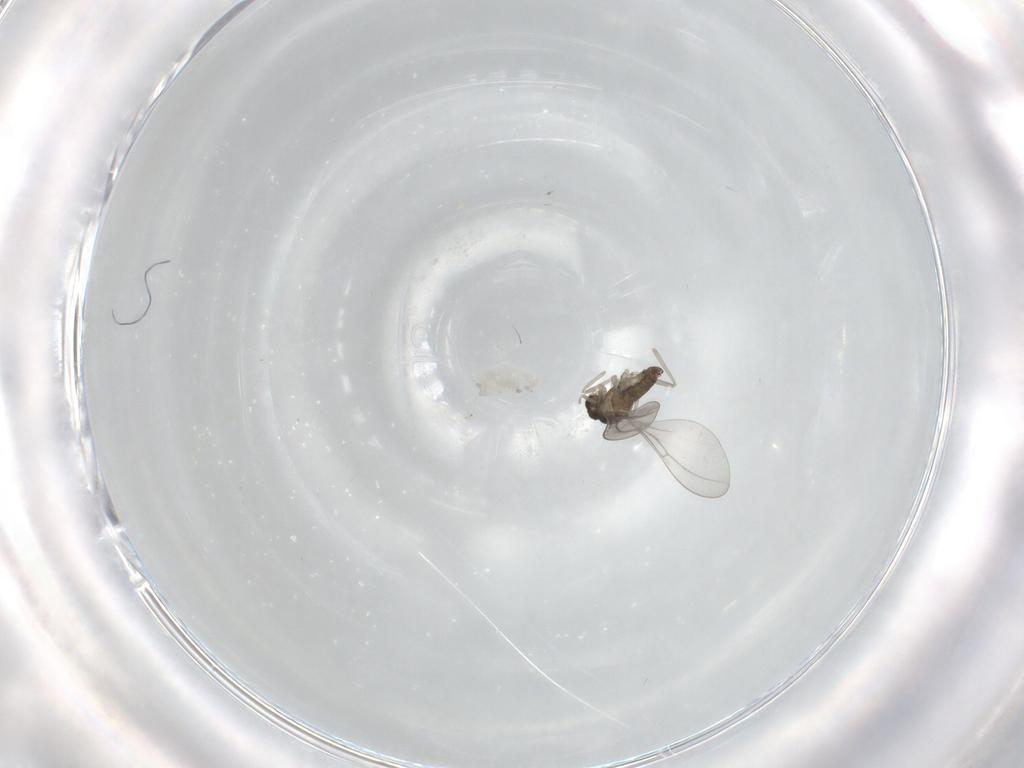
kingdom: Animalia
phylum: Arthropoda
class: Insecta
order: Diptera
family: Cecidomyiidae
